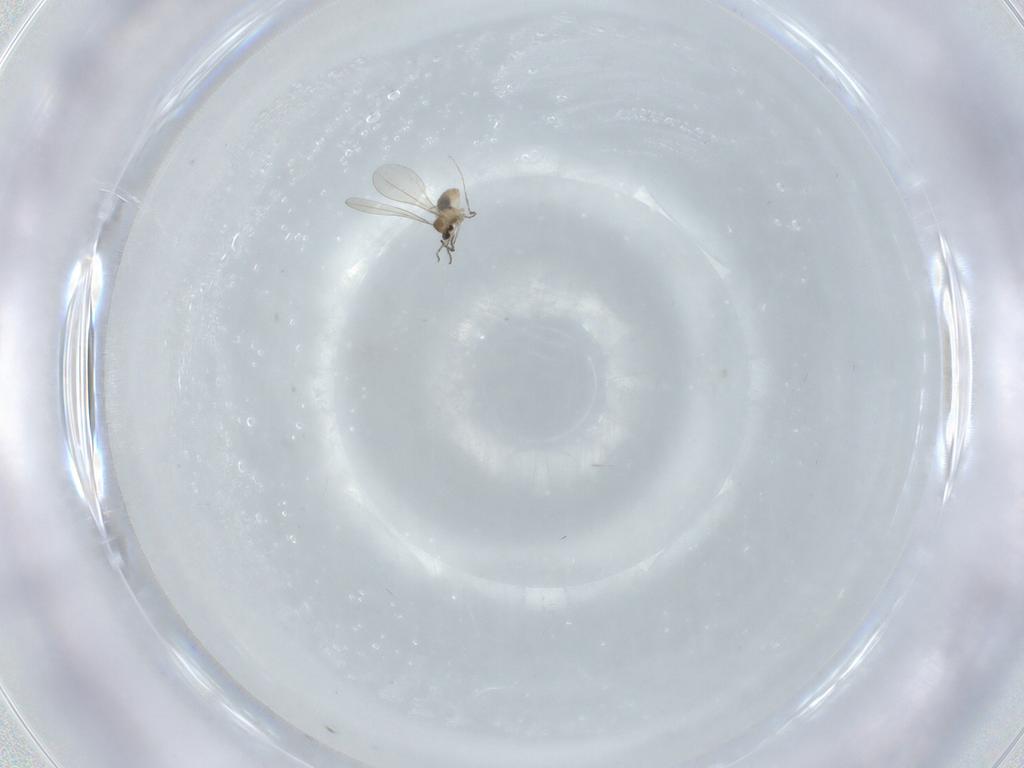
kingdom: Animalia
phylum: Arthropoda
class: Insecta
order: Diptera
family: Cecidomyiidae
